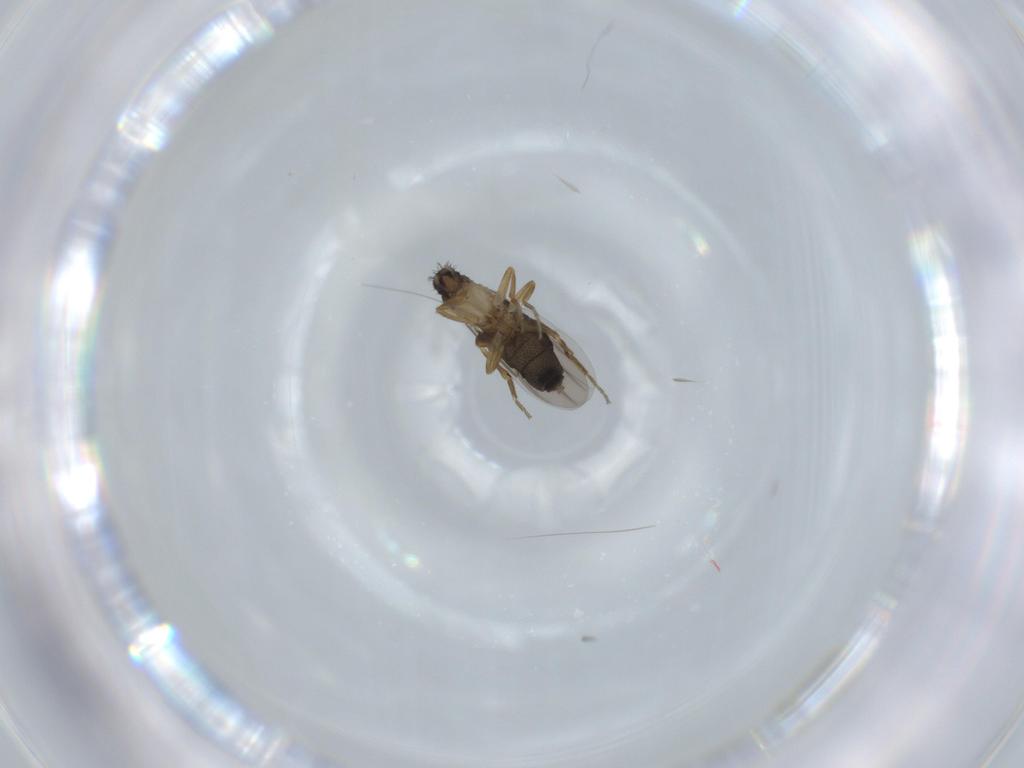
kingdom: Animalia
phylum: Arthropoda
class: Insecta
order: Diptera
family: Phoridae
